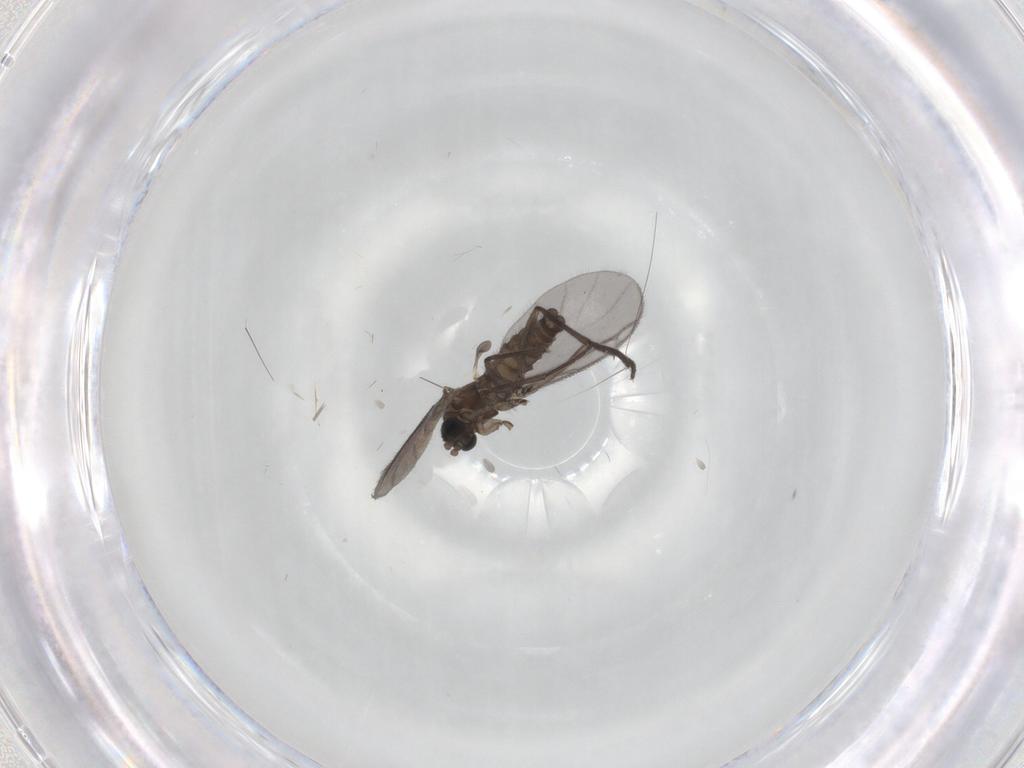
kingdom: Animalia
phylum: Arthropoda
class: Insecta
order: Diptera
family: Sciaridae
